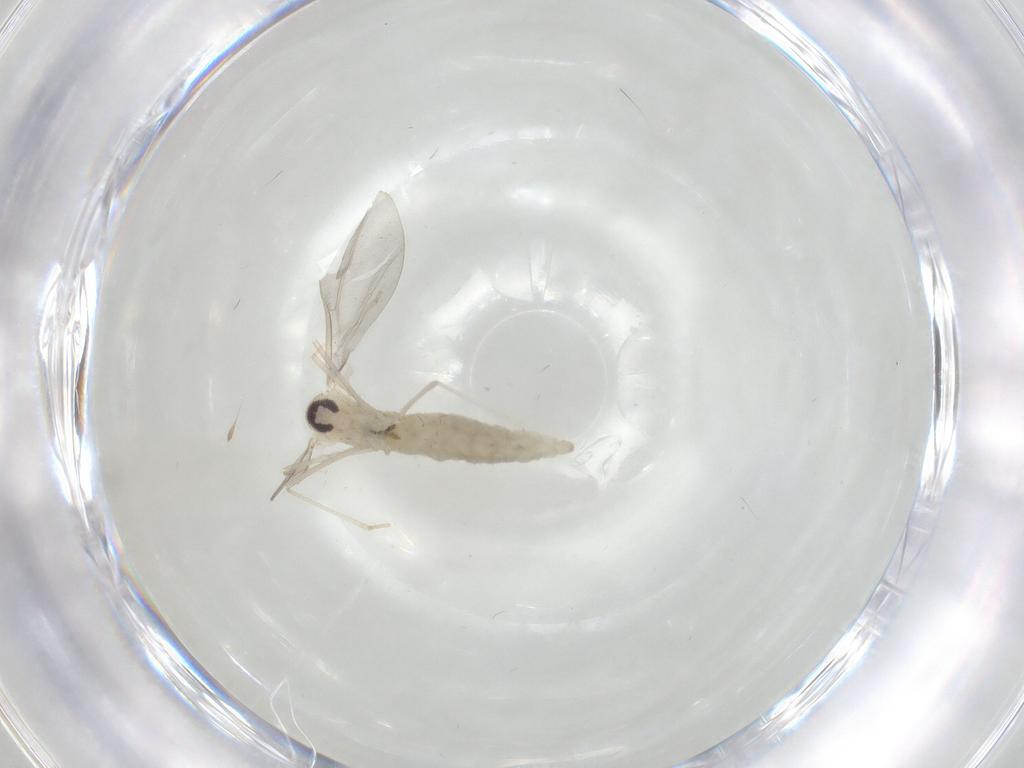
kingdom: Animalia
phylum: Arthropoda
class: Insecta
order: Diptera
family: Cecidomyiidae
